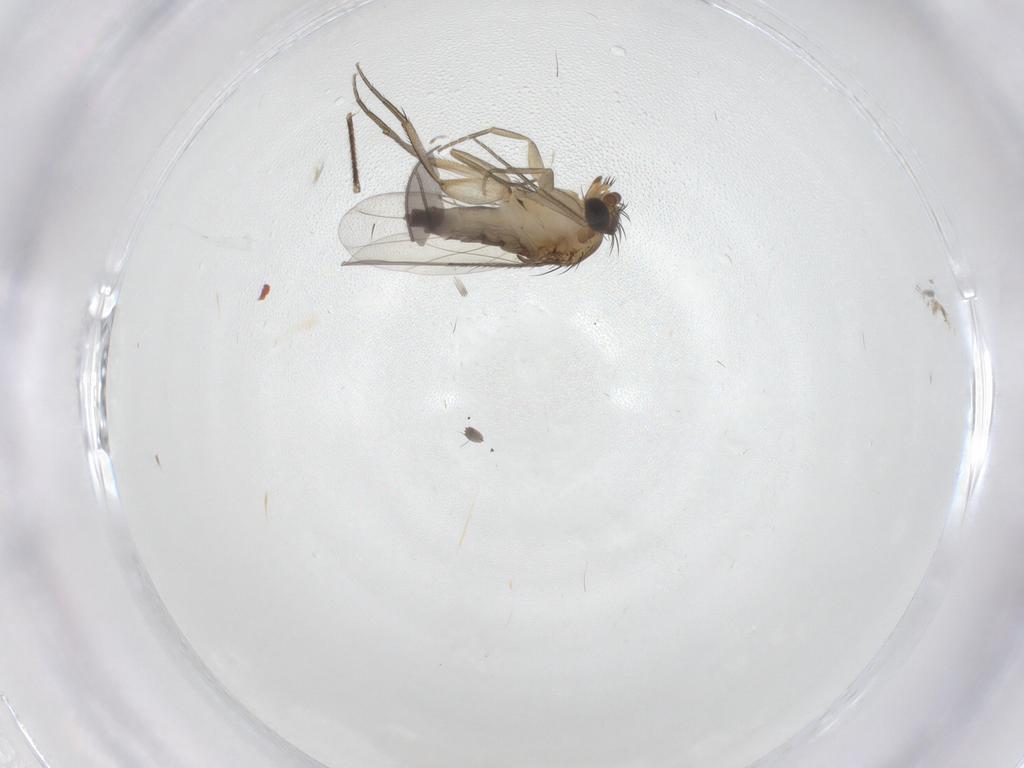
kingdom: Animalia
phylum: Arthropoda
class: Insecta
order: Diptera
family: Phoridae
